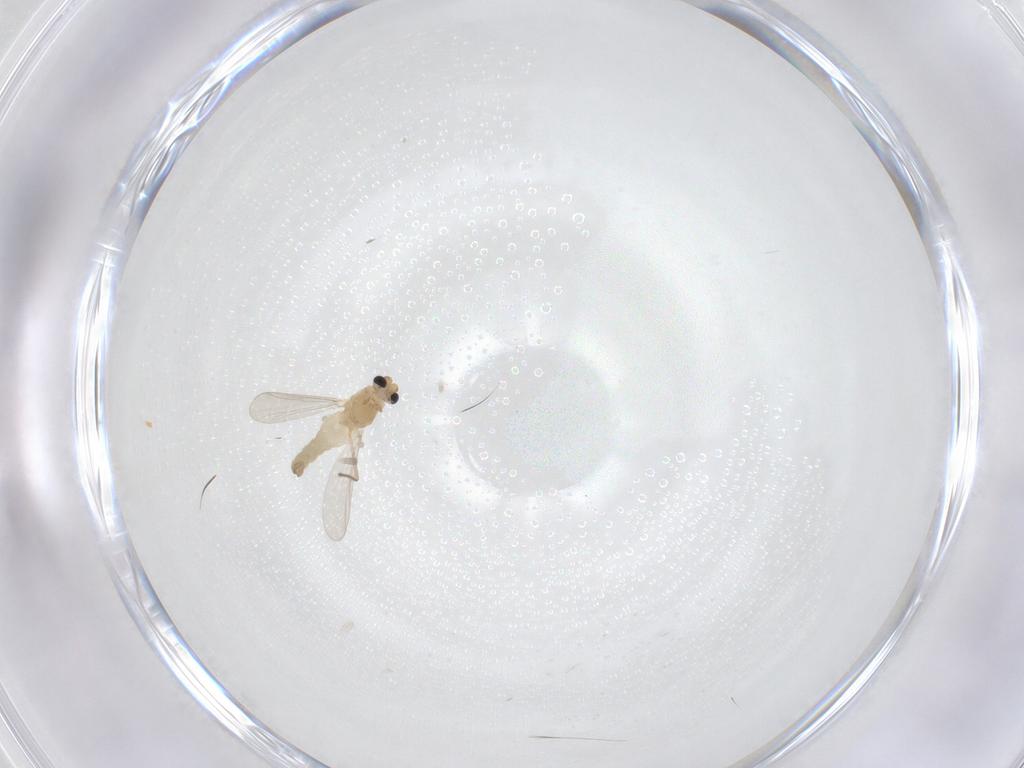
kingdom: Animalia
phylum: Arthropoda
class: Insecta
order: Diptera
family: Chironomidae
